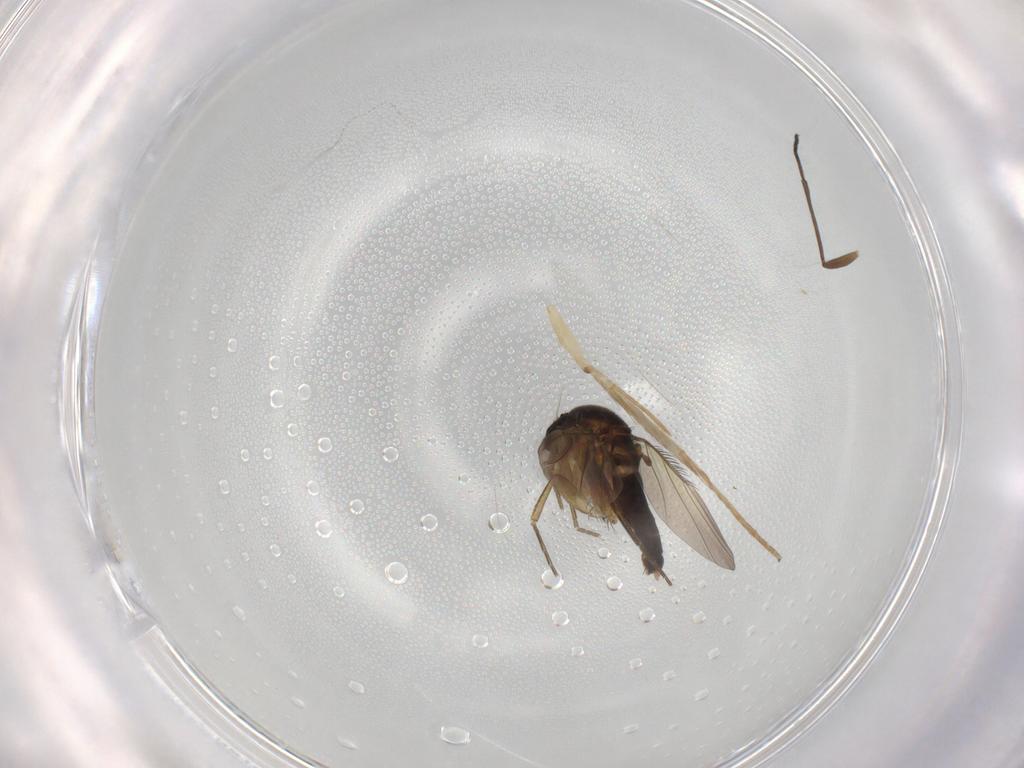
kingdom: Animalia
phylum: Arthropoda
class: Insecta
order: Diptera
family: Phoridae
